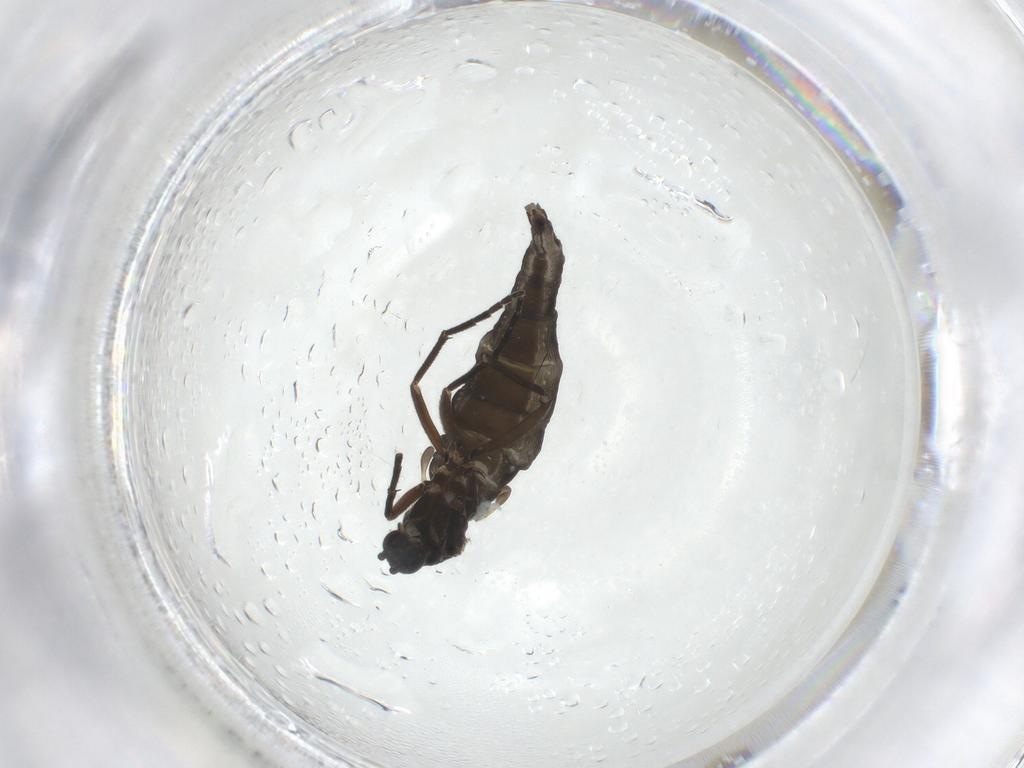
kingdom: Animalia
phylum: Arthropoda
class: Insecta
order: Diptera
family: Sciaridae
